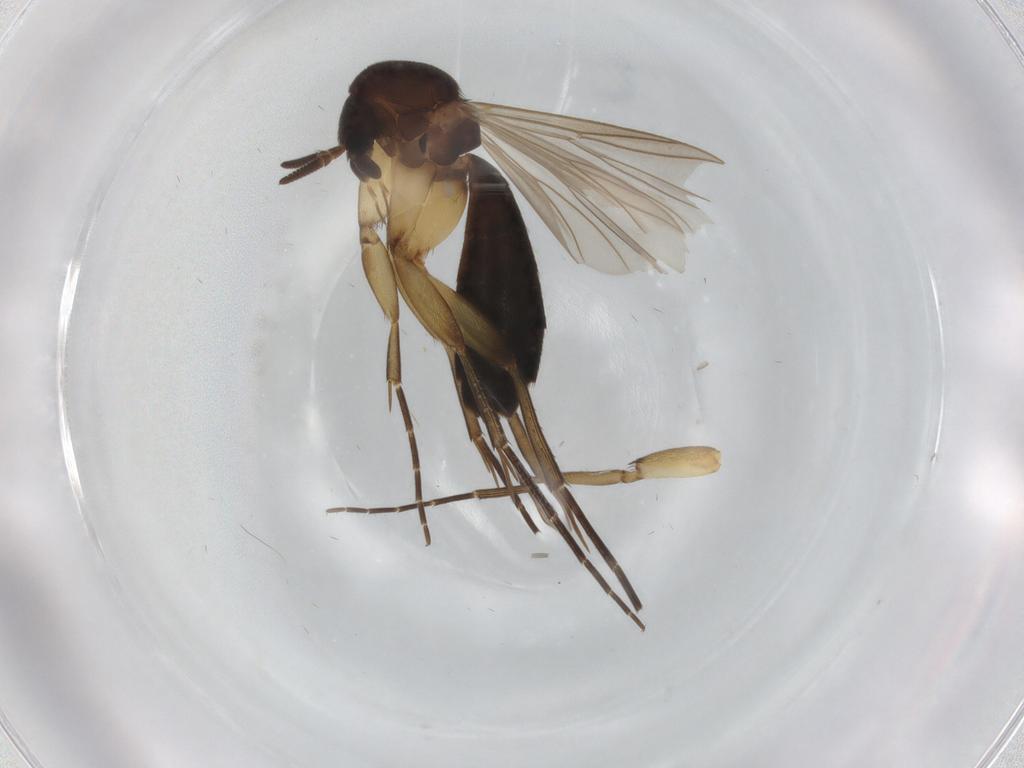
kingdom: Animalia
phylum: Arthropoda
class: Insecta
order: Diptera
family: Mycetophilidae
